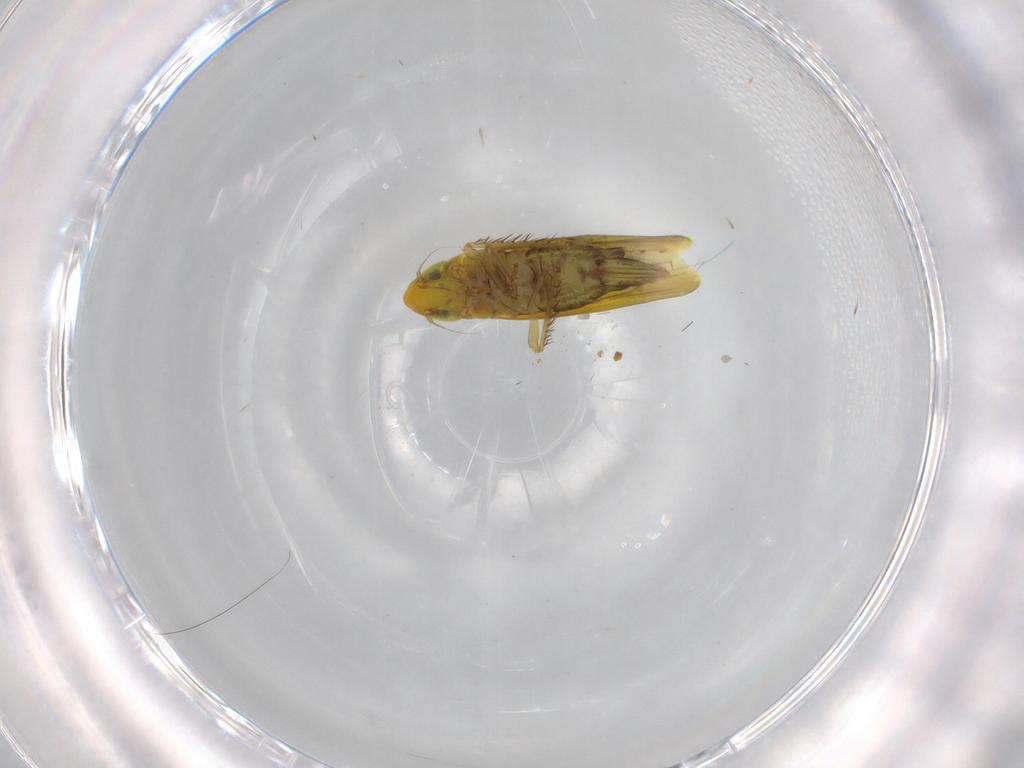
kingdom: Animalia
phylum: Arthropoda
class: Insecta
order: Hemiptera
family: Cicadellidae
